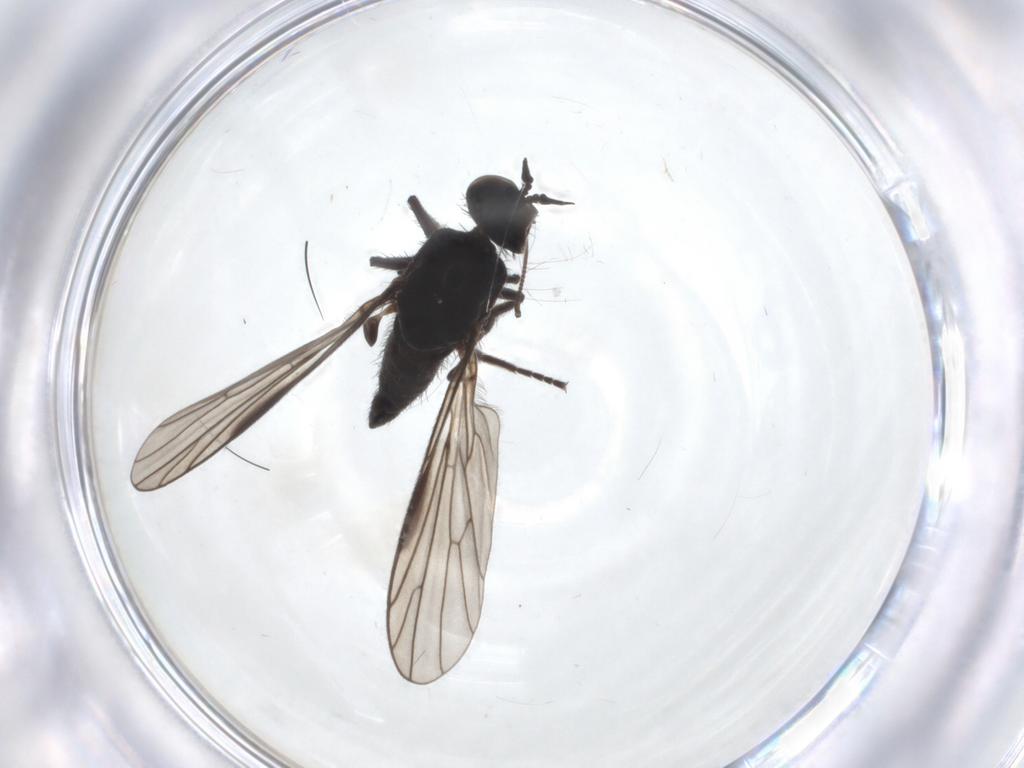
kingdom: Animalia
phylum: Arthropoda
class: Insecta
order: Diptera
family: Empididae
